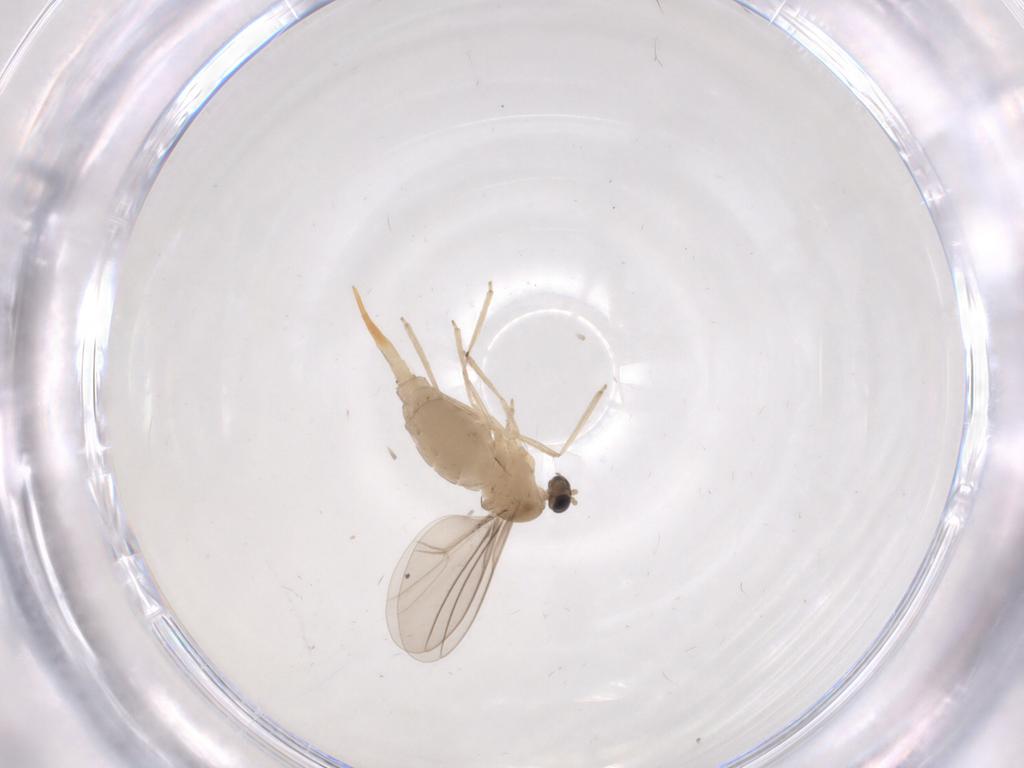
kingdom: Animalia
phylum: Arthropoda
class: Insecta
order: Diptera
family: Cecidomyiidae
